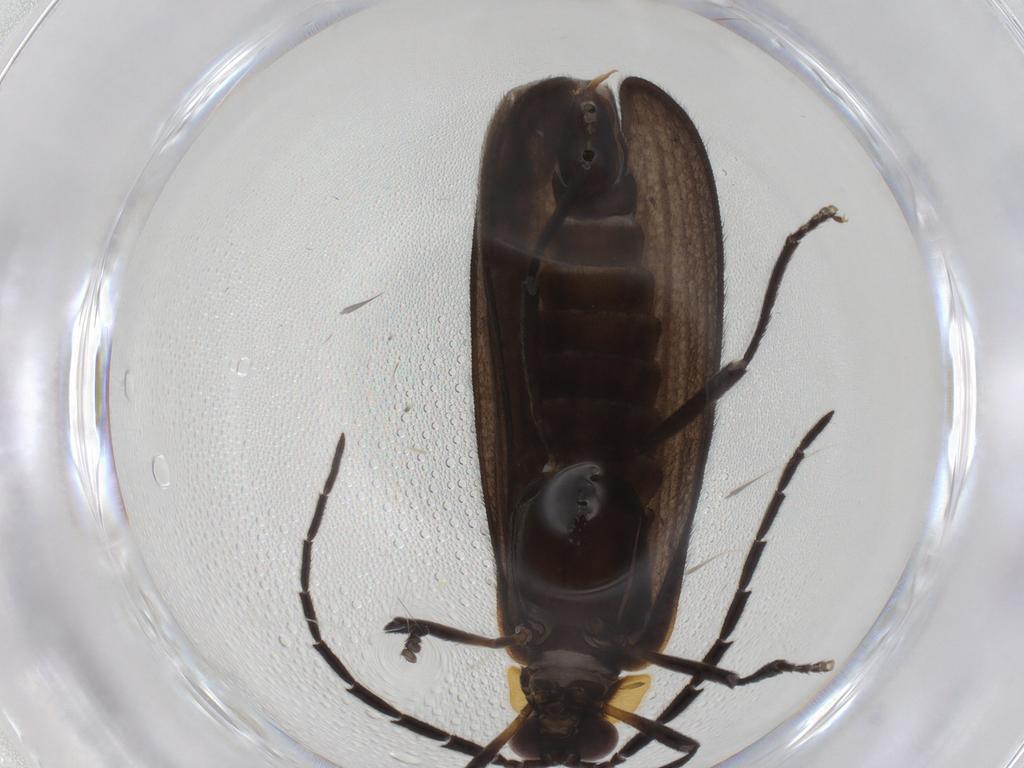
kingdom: Animalia
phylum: Arthropoda
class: Insecta
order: Coleoptera
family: Lycidae
